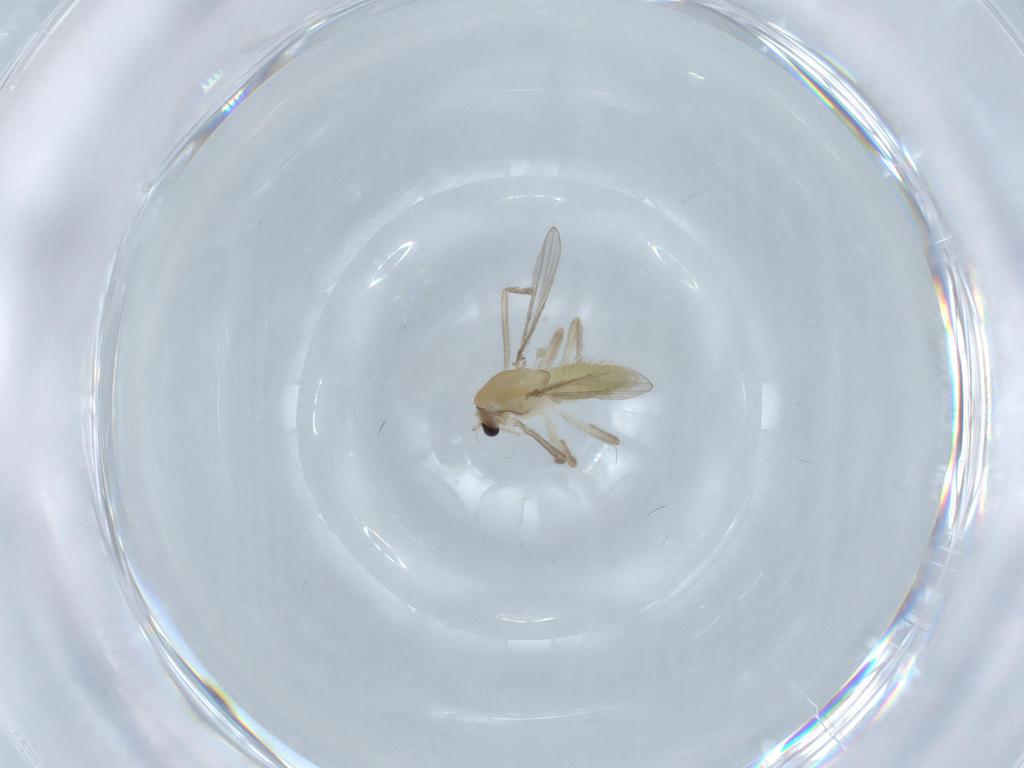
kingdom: Animalia
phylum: Arthropoda
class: Insecta
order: Diptera
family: Chironomidae
